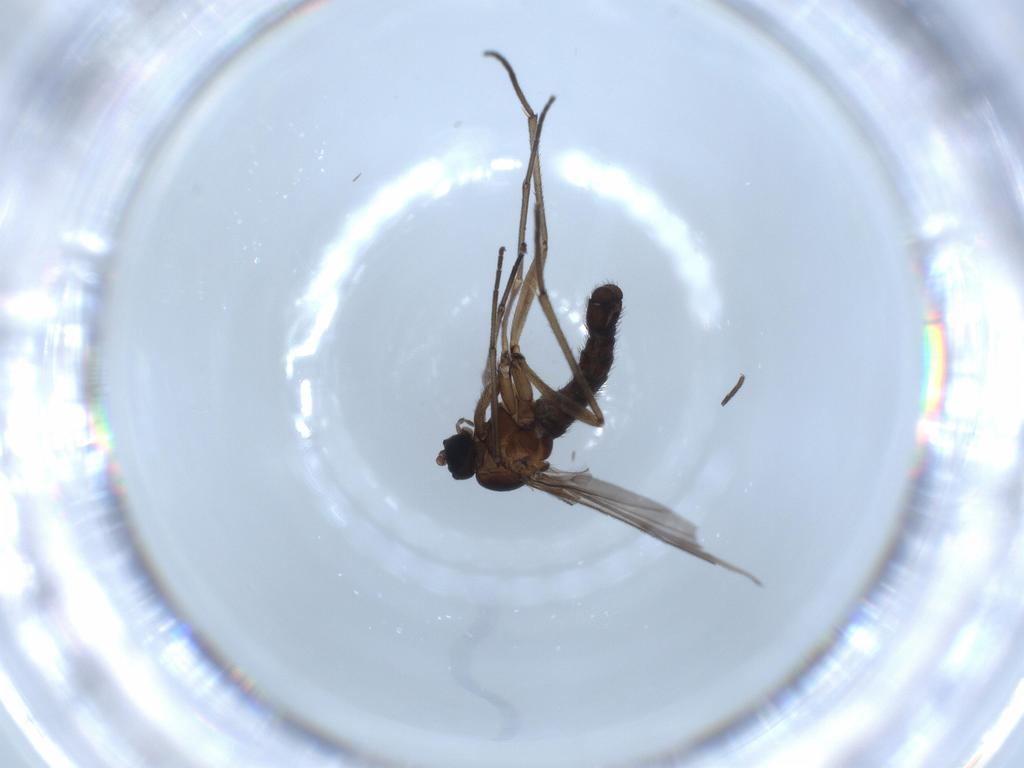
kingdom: Animalia
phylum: Arthropoda
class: Insecta
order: Diptera
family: Sciaridae
